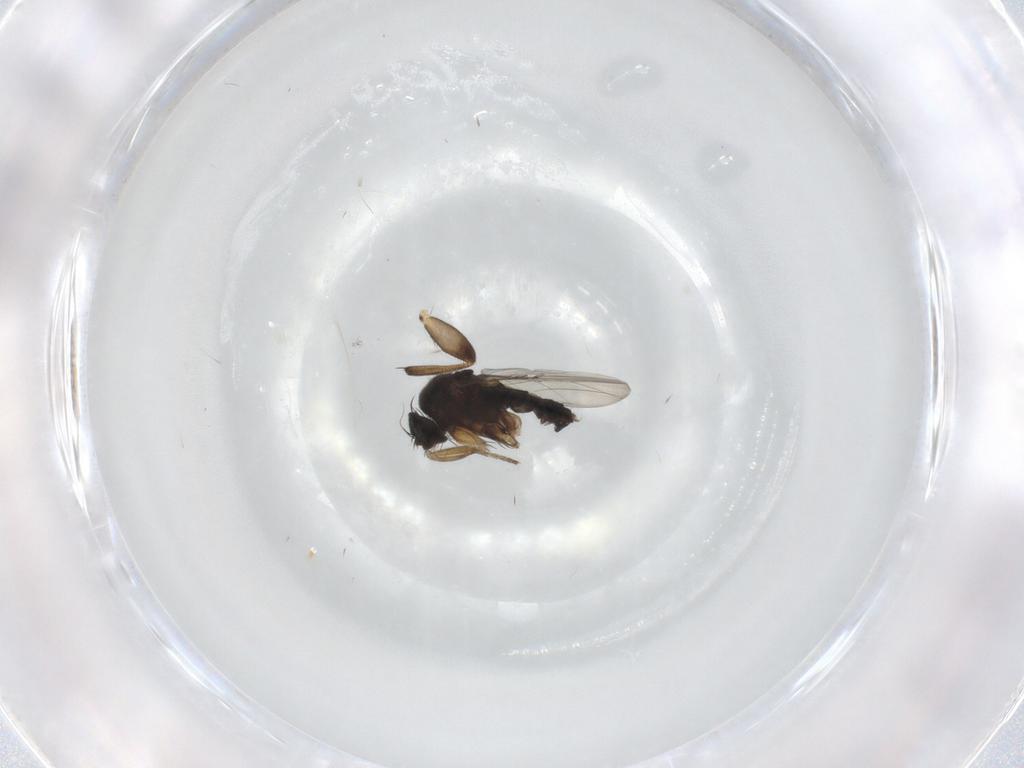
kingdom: Animalia
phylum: Arthropoda
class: Insecta
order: Diptera
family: Phoridae
